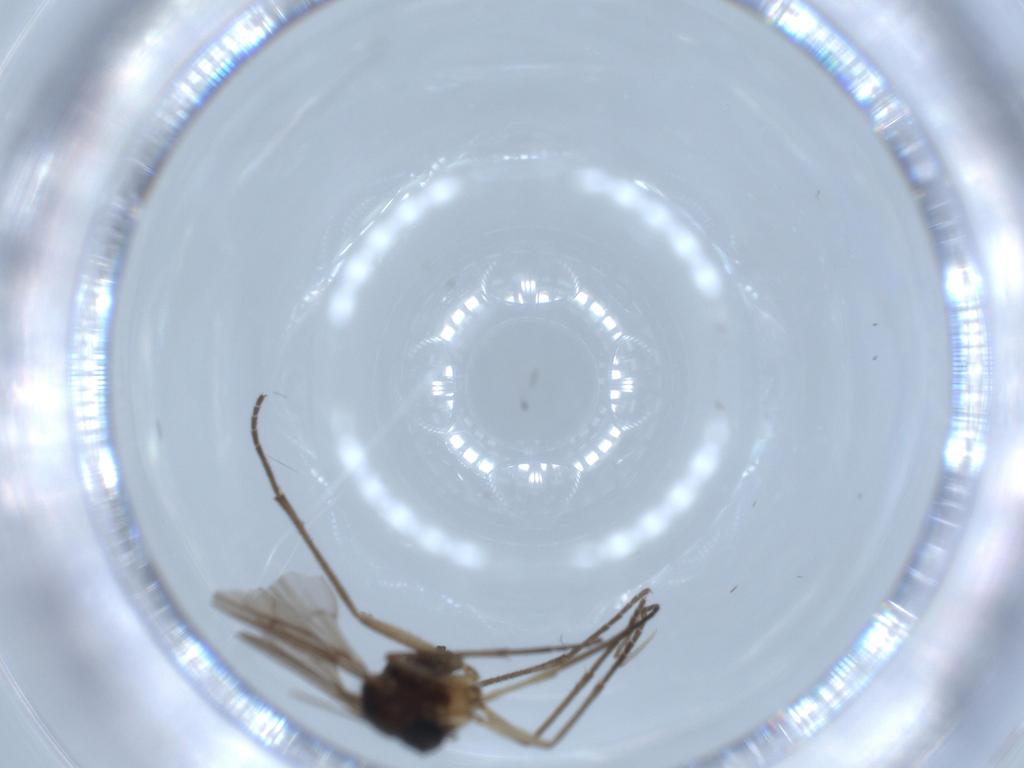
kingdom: Animalia
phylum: Arthropoda
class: Insecta
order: Diptera
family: Sciaridae
